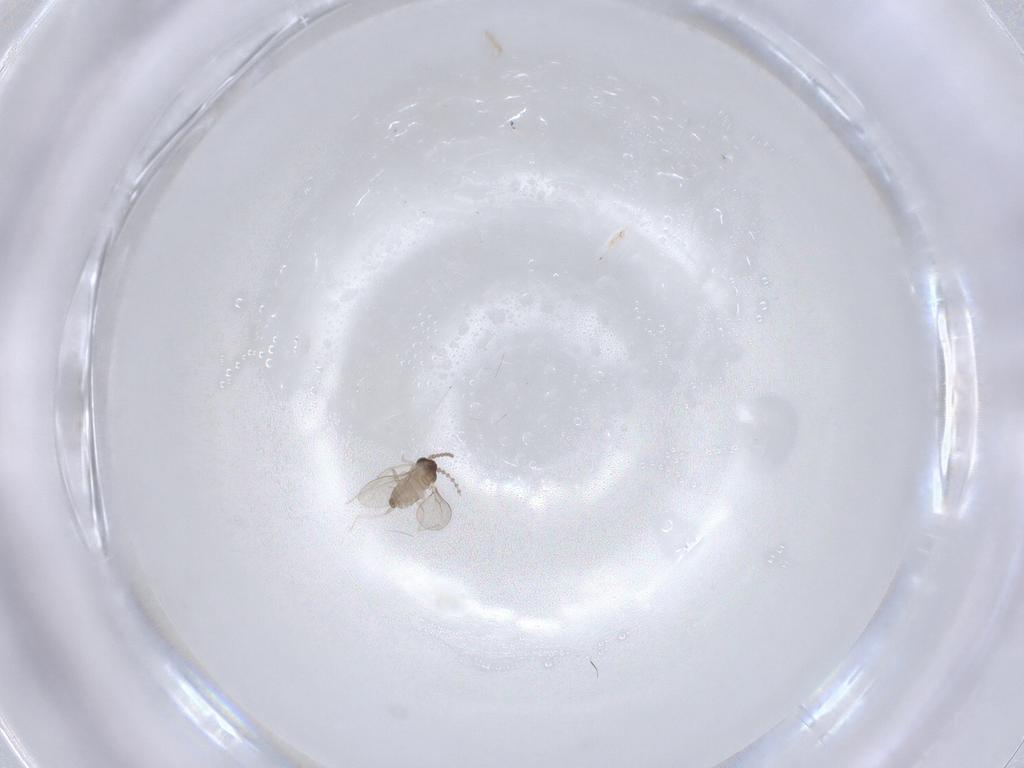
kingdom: Animalia
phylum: Arthropoda
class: Insecta
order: Diptera
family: Cecidomyiidae
